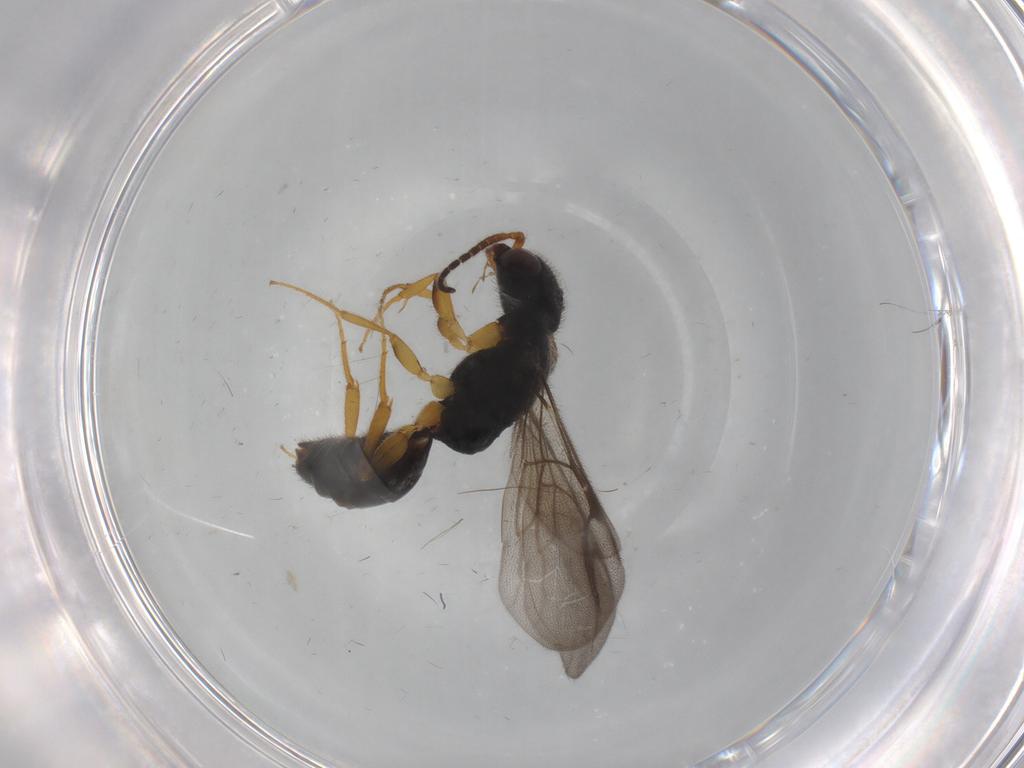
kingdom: Animalia
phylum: Arthropoda
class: Insecta
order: Hymenoptera
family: Bethylidae
